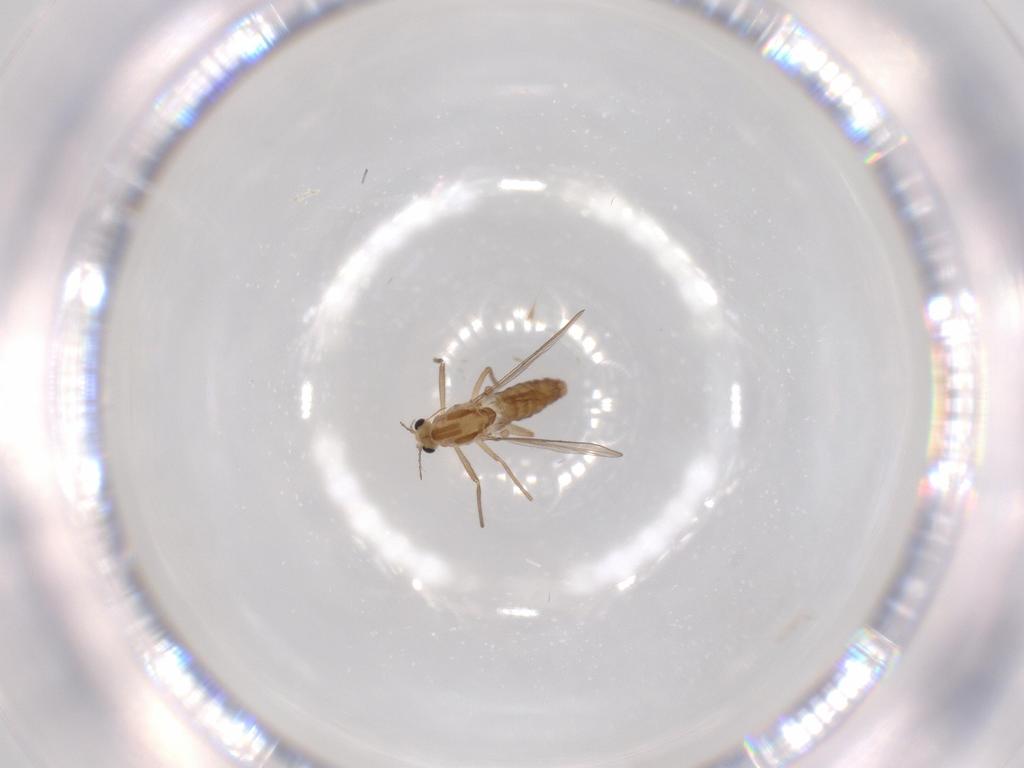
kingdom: Animalia
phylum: Arthropoda
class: Insecta
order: Diptera
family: Chironomidae
